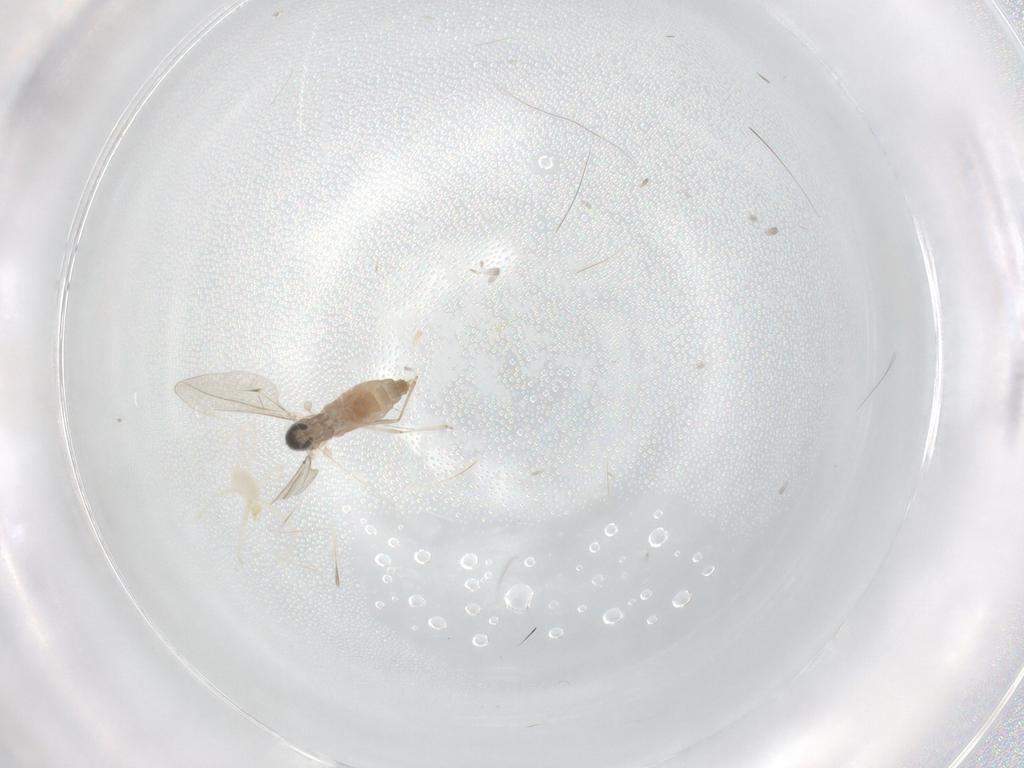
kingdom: Animalia
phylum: Arthropoda
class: Insecta
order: Diptera
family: Cecidomyiidae
